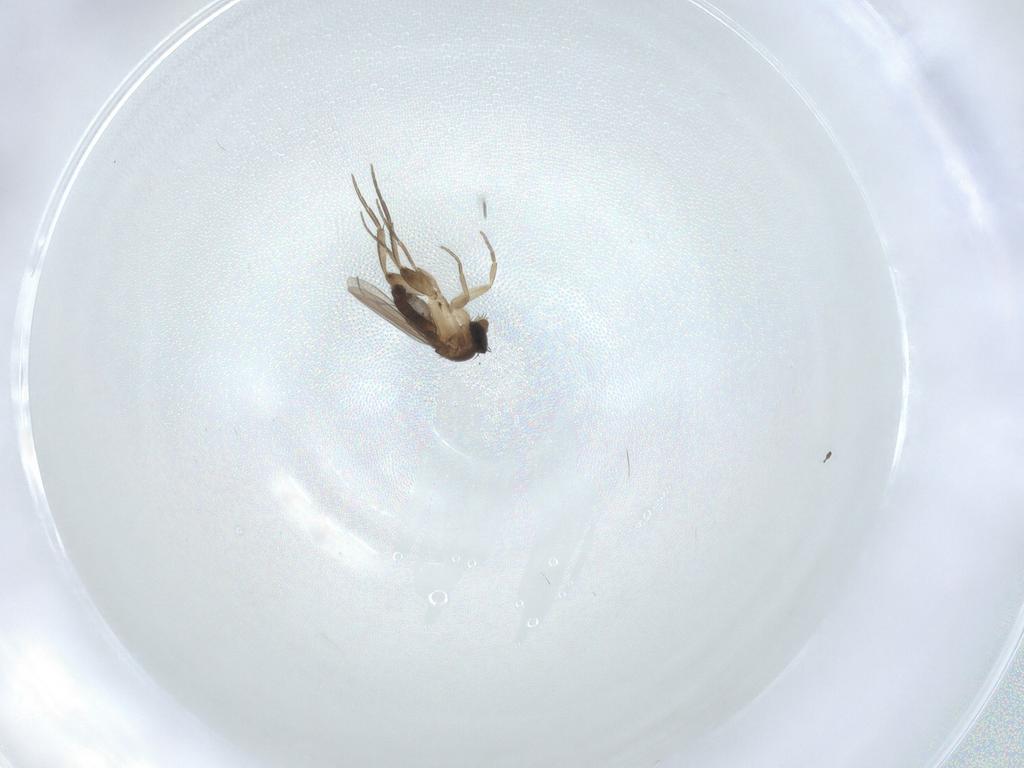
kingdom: Animalia
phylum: Arthropoda
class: Insecta
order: Diptera
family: Phoridae
